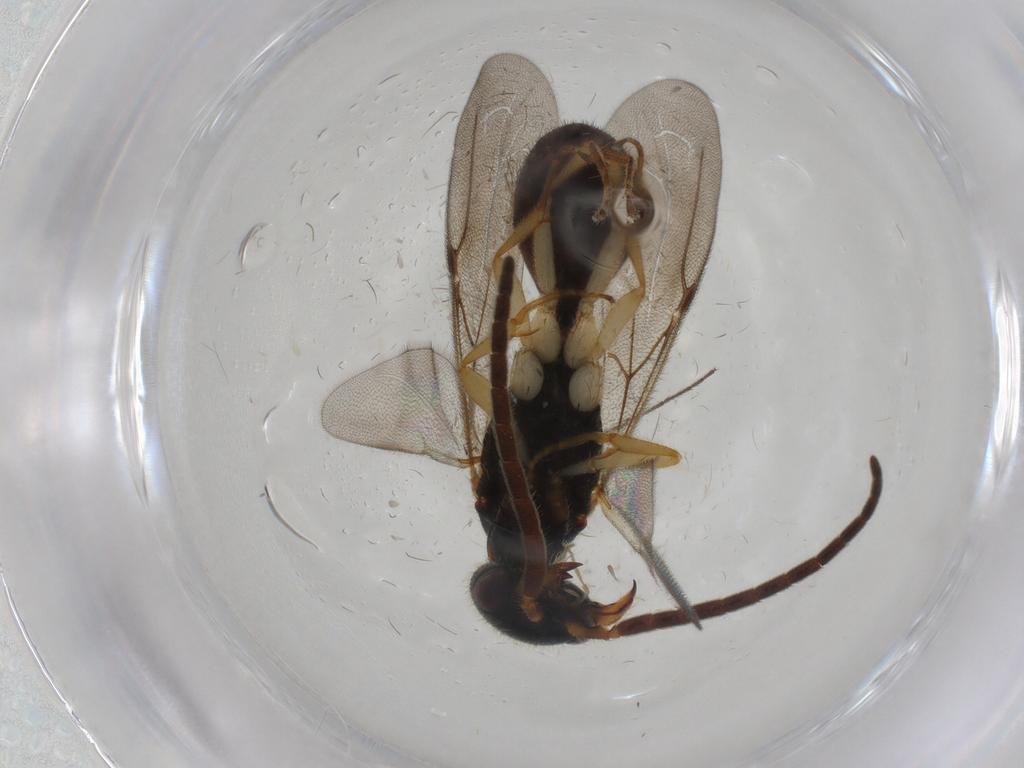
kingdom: Animalia
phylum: Arthropoda
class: Insecta
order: Hymenoptera
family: Bethylidae
